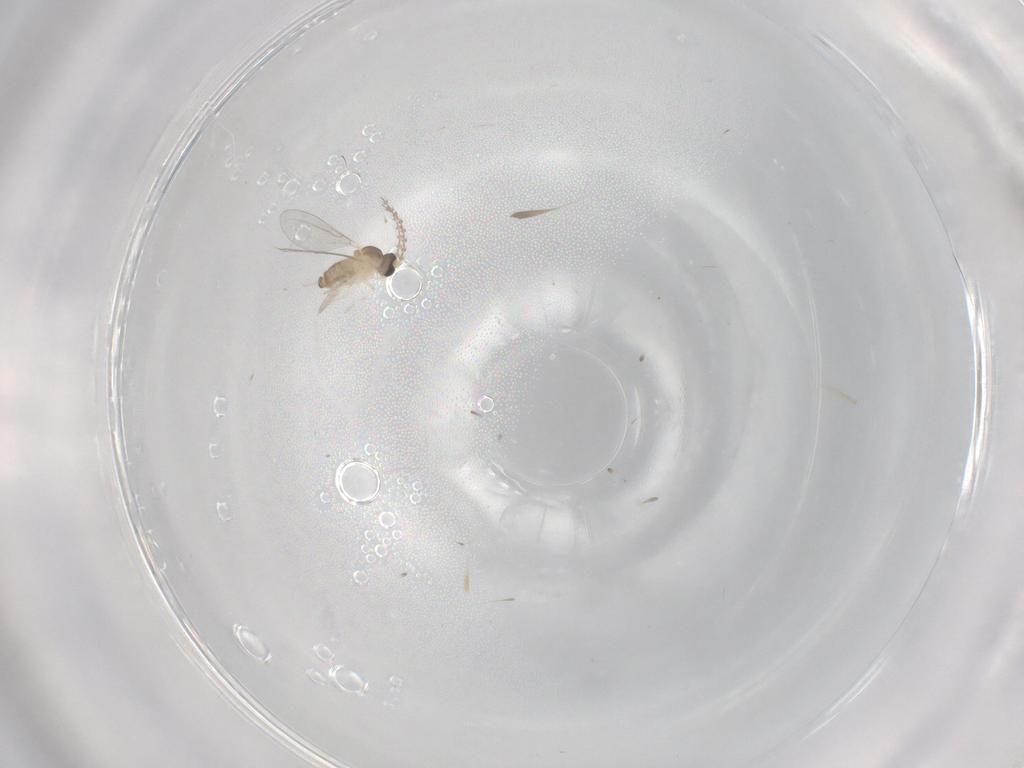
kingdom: Animalia
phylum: Arthropoda
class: Insecta
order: Diptera
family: Cecidomyiidae
